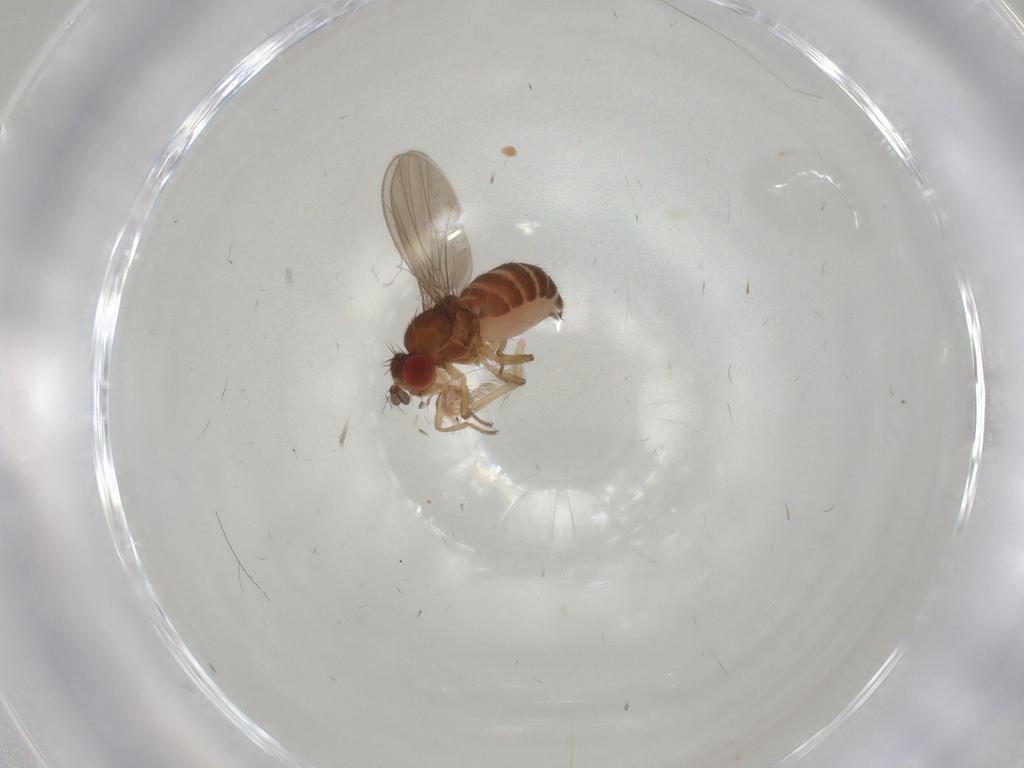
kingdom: Animalia
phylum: Arthropoda
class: Insecta
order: Diptera
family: Drosophilidae
